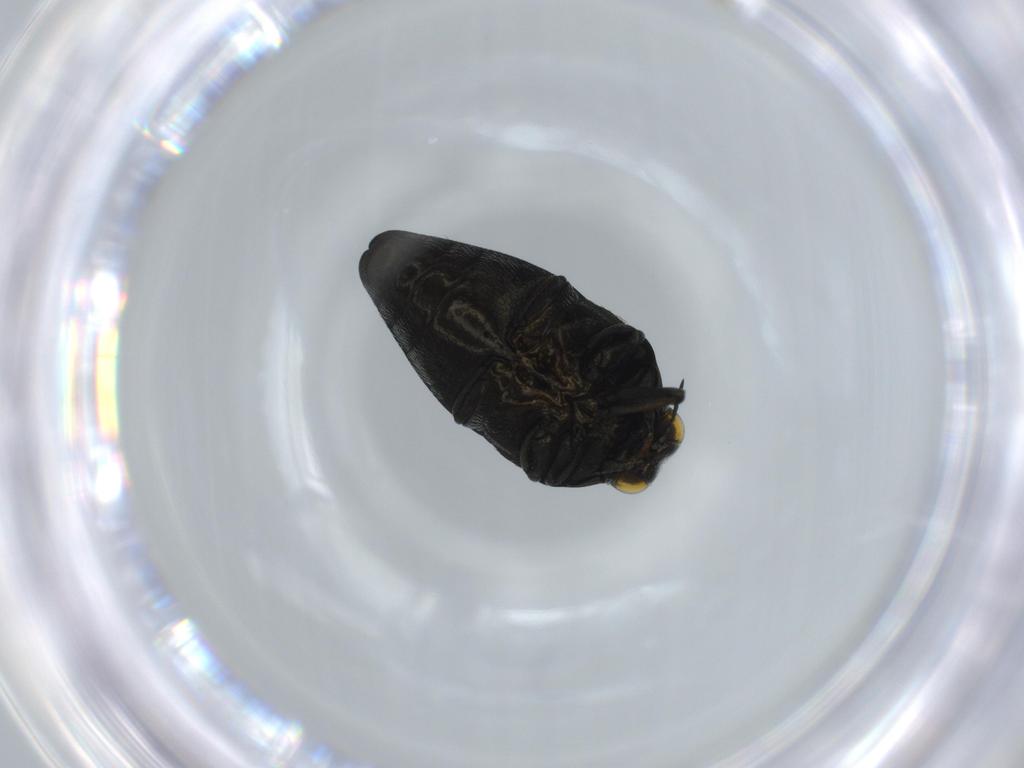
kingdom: Animalia
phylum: Arthropoda
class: Insecta
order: Coleoptera
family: Buprestidae
